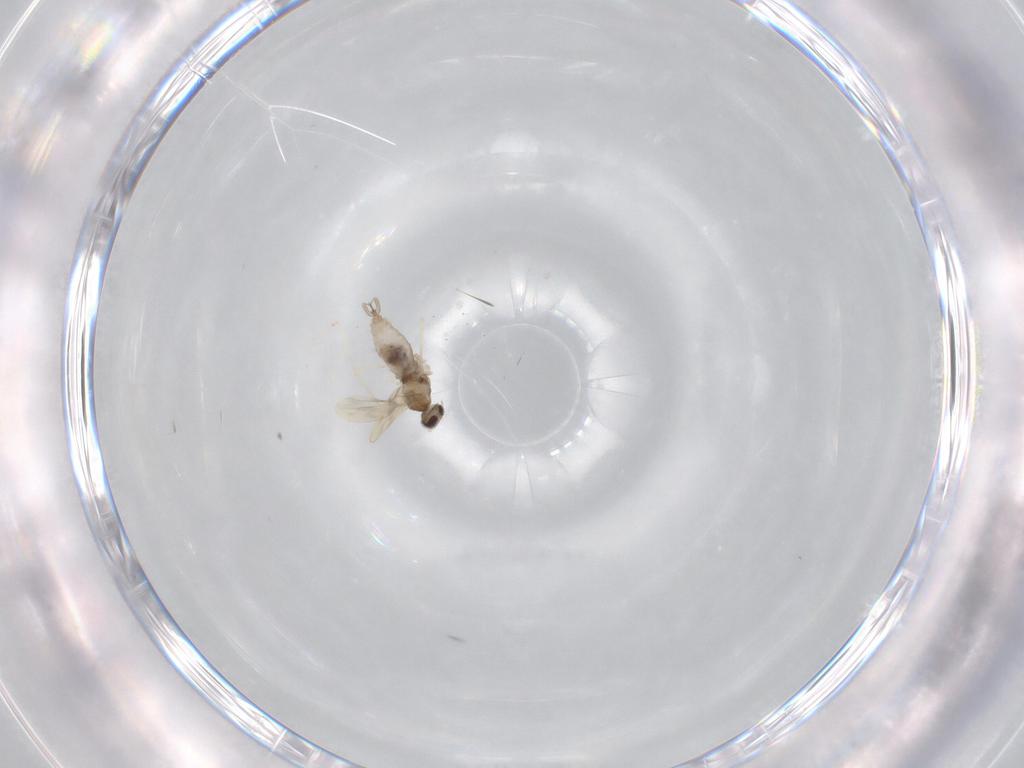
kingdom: Animalia
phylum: Arthropoda
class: Insecta
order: Diptera
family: Cecidomyiidae
